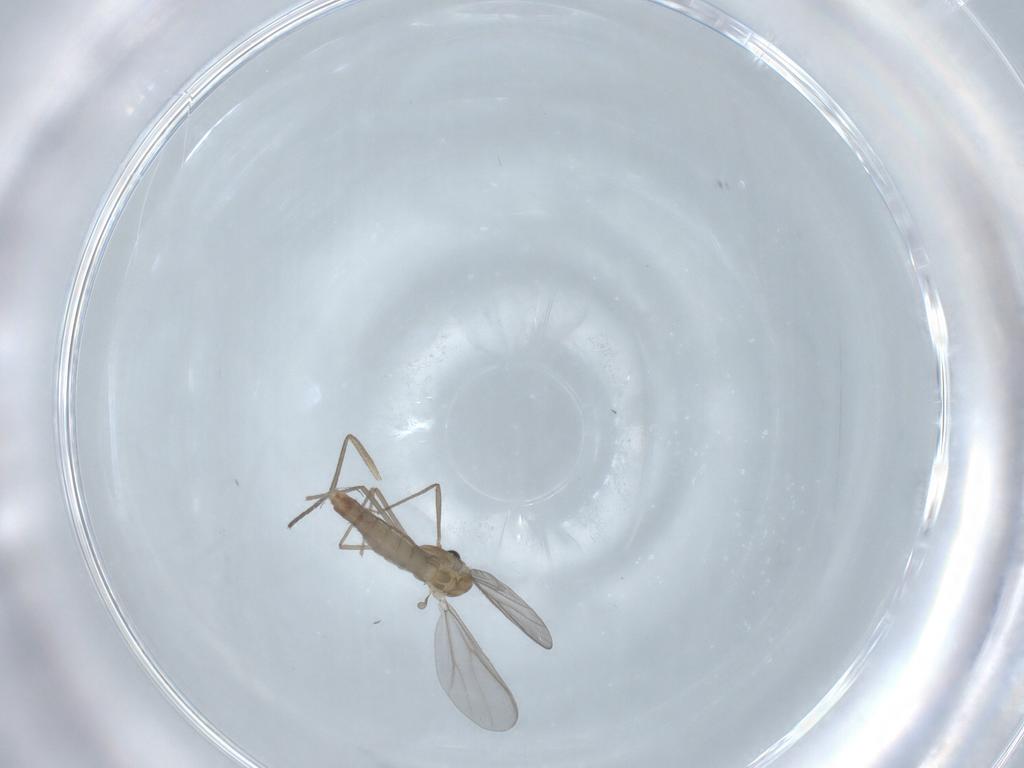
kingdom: Animalia
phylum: Arthropoda
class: Insecta
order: Diptera
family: Chironomidae
